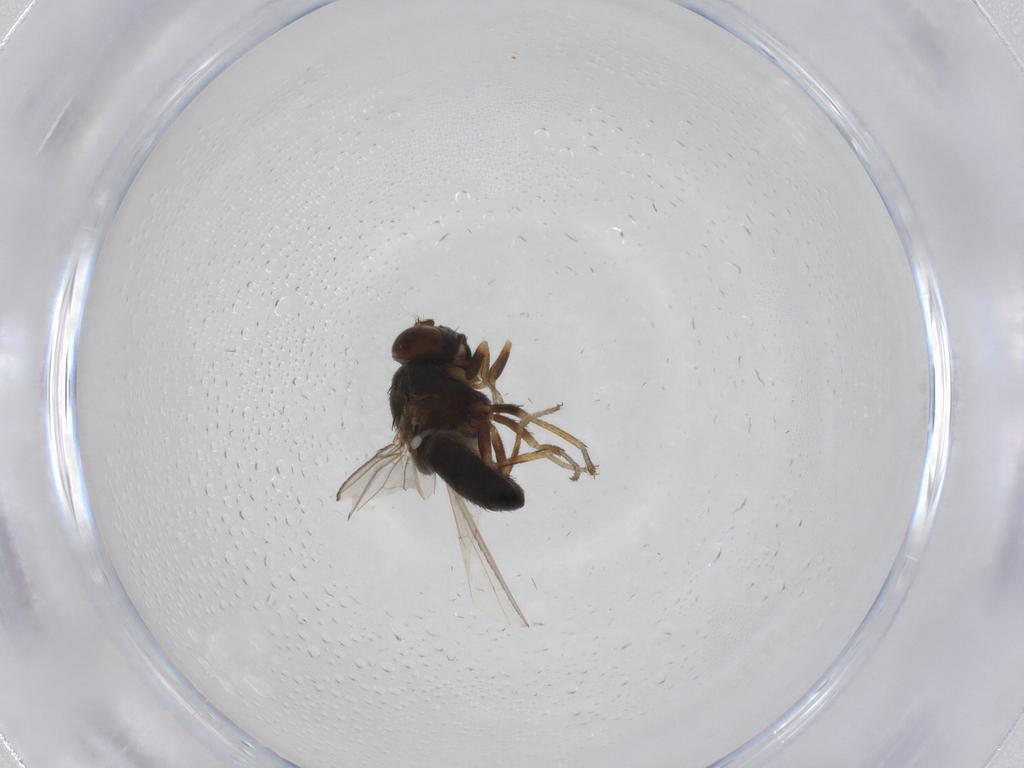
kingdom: Animalia
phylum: Arthropoda
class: Insecta
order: Diptera
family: Ephydridae
